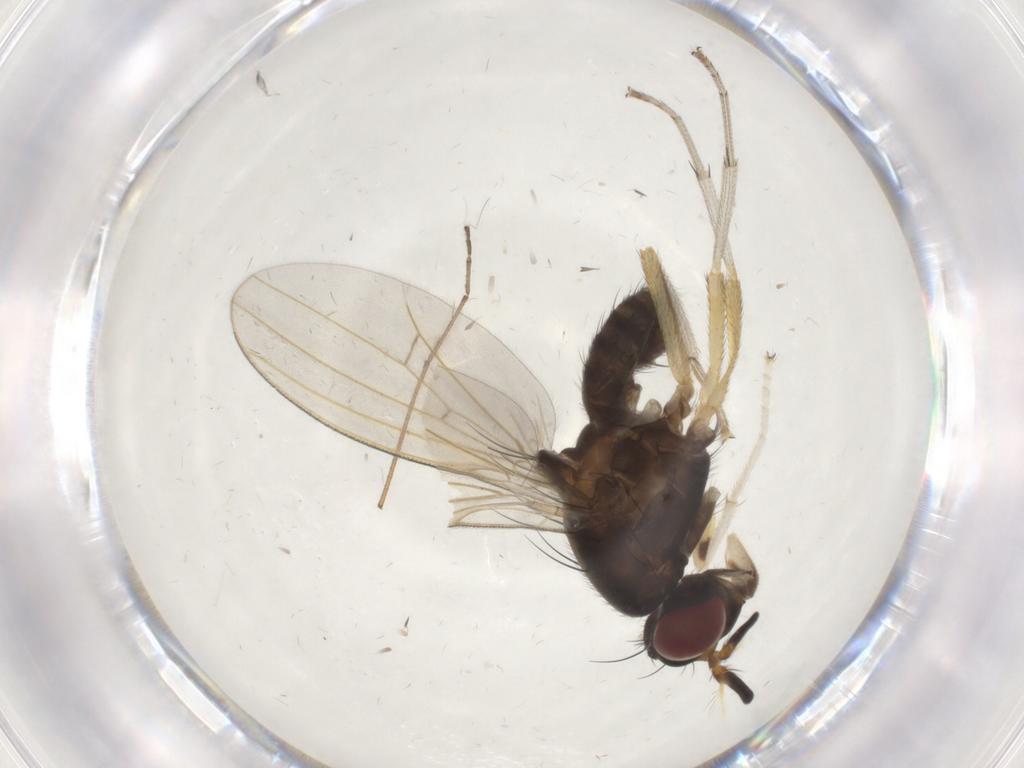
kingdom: Animalia
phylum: Arthropoda
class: Insecta
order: Diptera
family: Limoniidae
